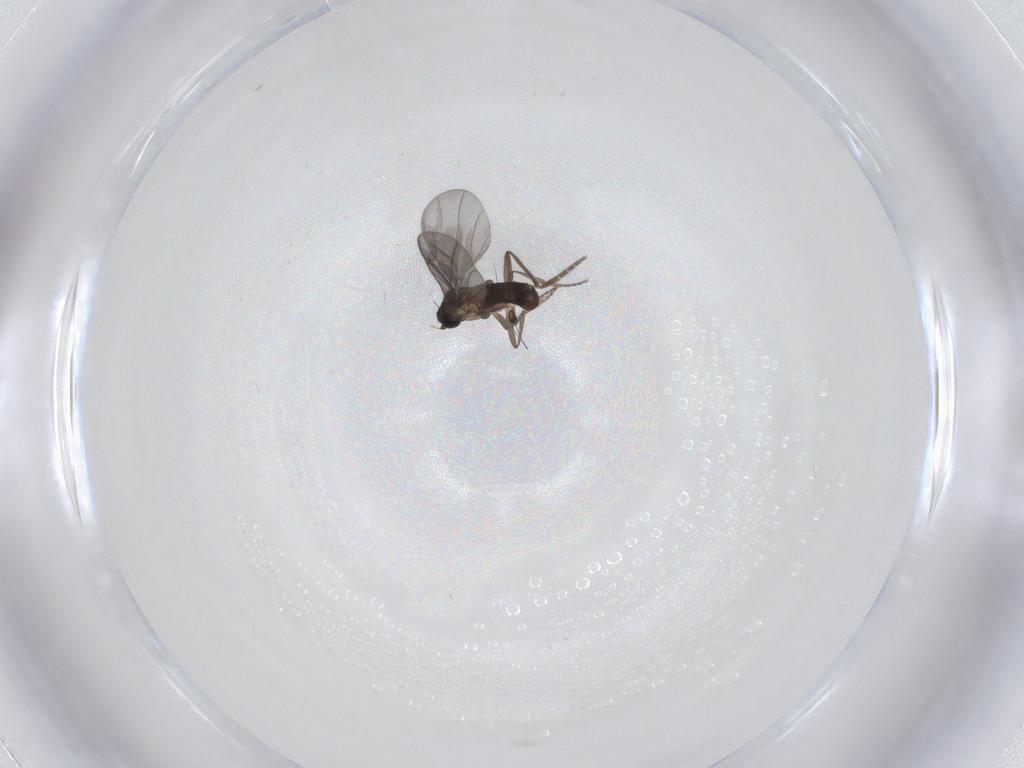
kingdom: Animalia
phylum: Arthropoda
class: Insecta
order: Diptera
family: Phoridae
